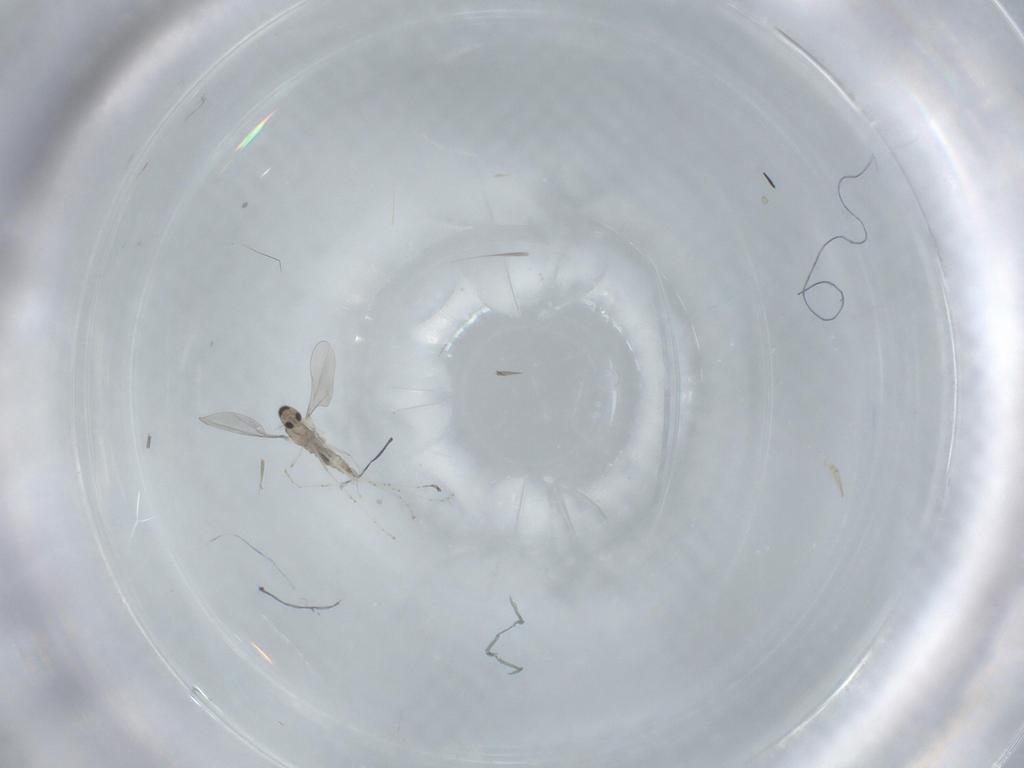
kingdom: Animalia
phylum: Arthropoda
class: Insecta
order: Diptera
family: Cecidomyiidae
